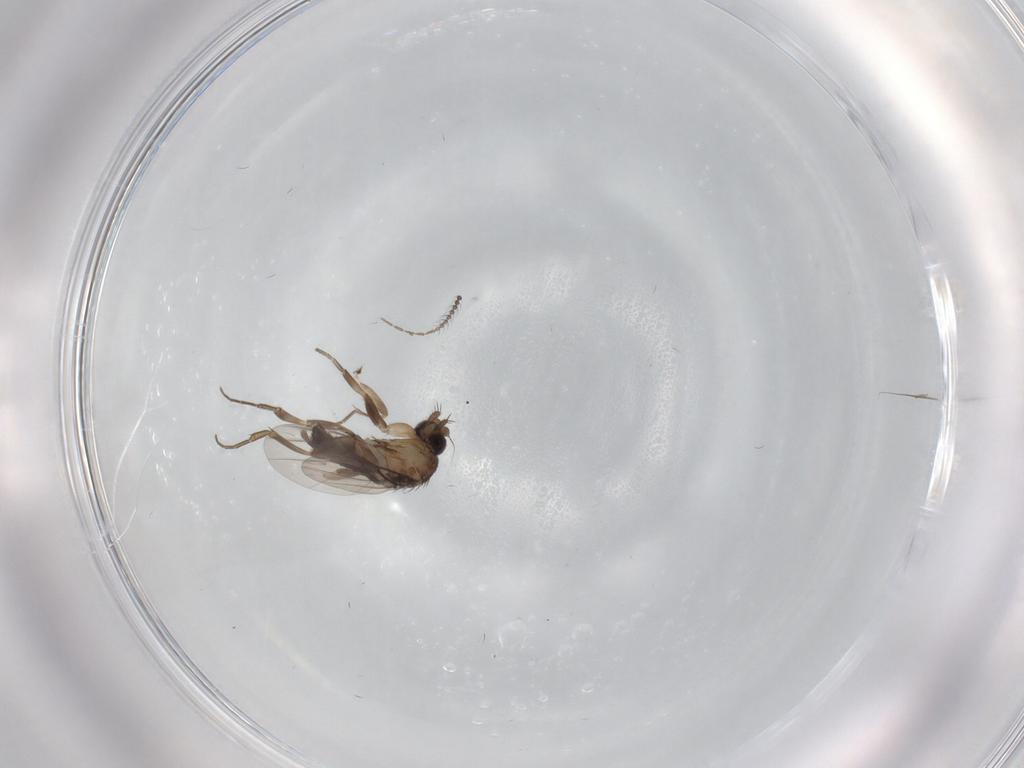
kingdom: Animalia
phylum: Arthropoda
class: Insecta
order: Diptera
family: Phoridae
